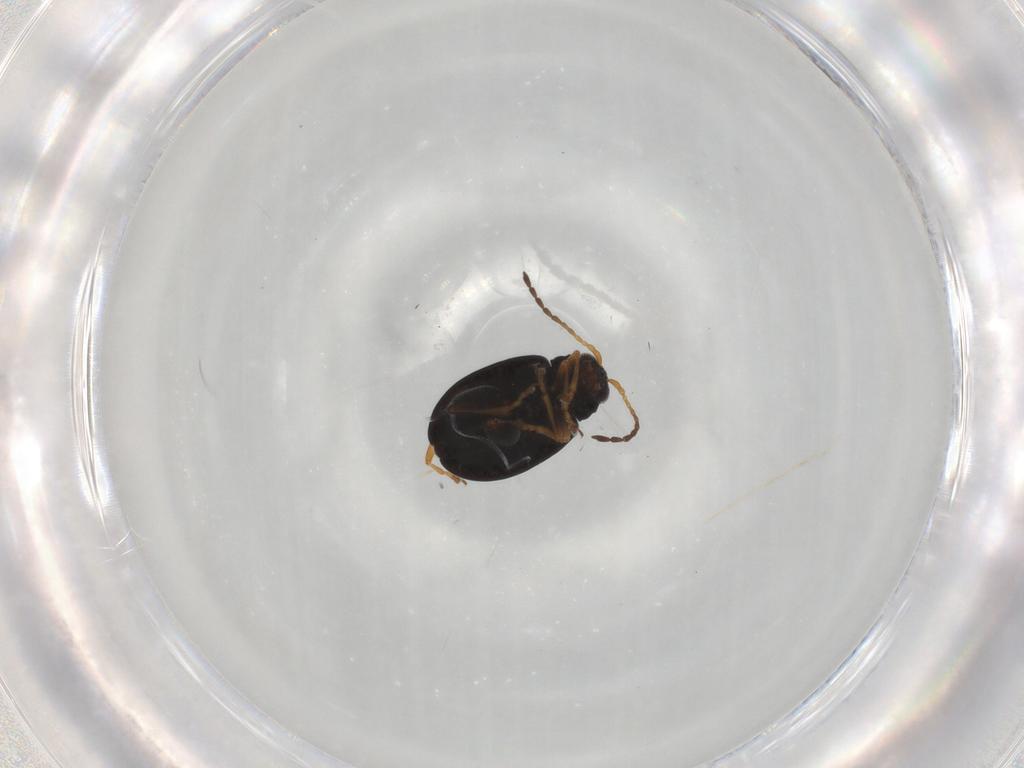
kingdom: Animalia
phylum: Arthropoda
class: Insecta
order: Coleoptera
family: Chrysomelidae
